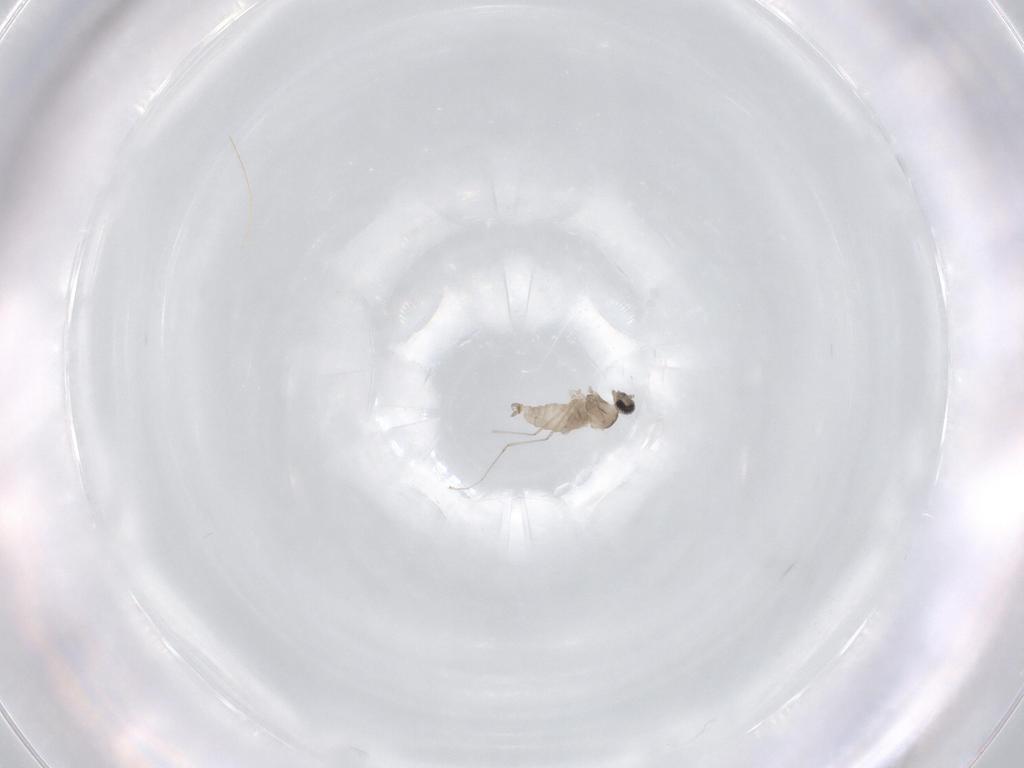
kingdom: Animalia
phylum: Arthropoda
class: Insecta
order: Diptera
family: Cecidomyiidae
